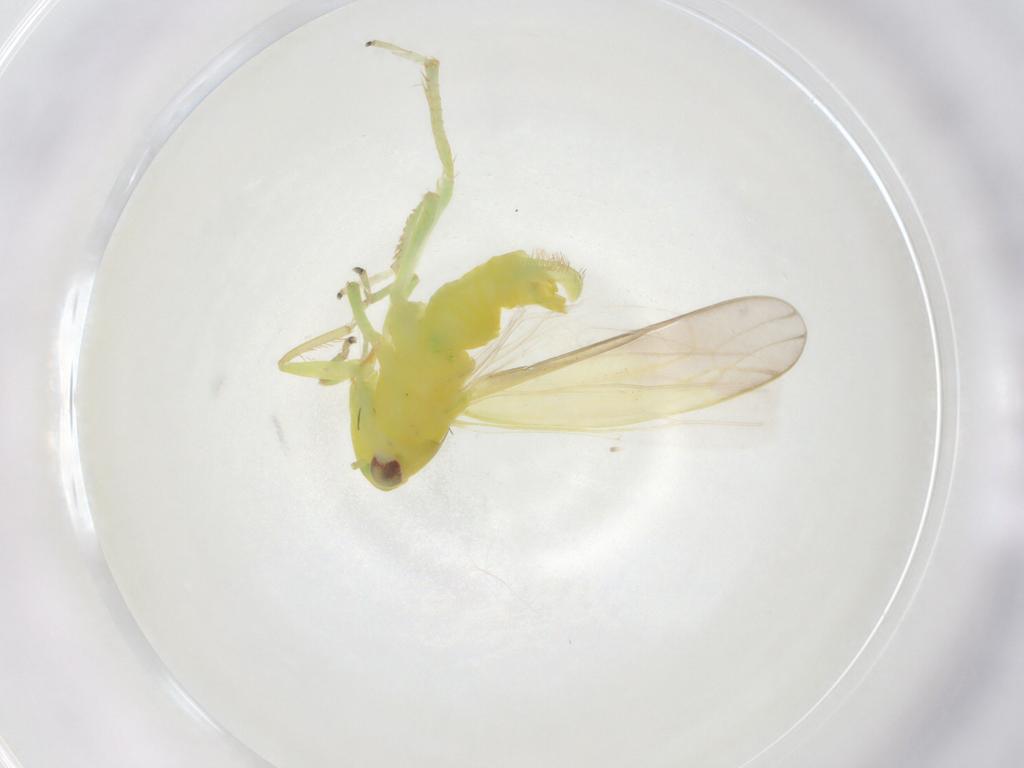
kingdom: Animalia
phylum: Arthropoda
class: Insecta
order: Hemiptera
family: Cicadellidae
